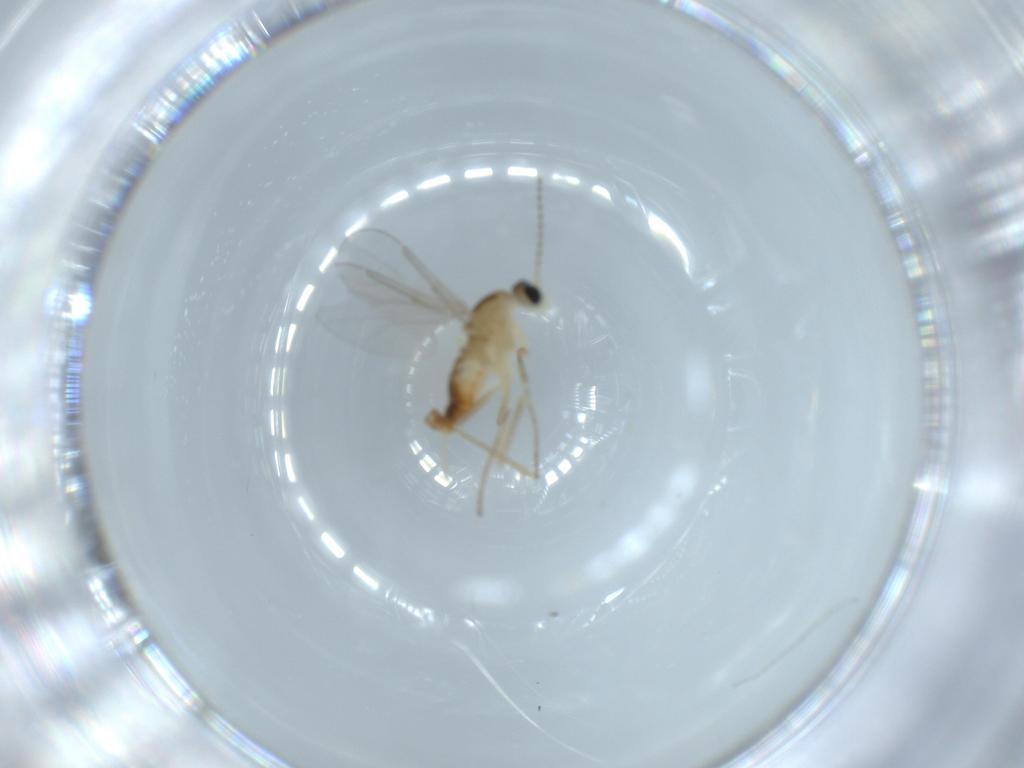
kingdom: Animalia
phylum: Arthropoda
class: Insecta
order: Diptera
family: Cecidomyiidae
